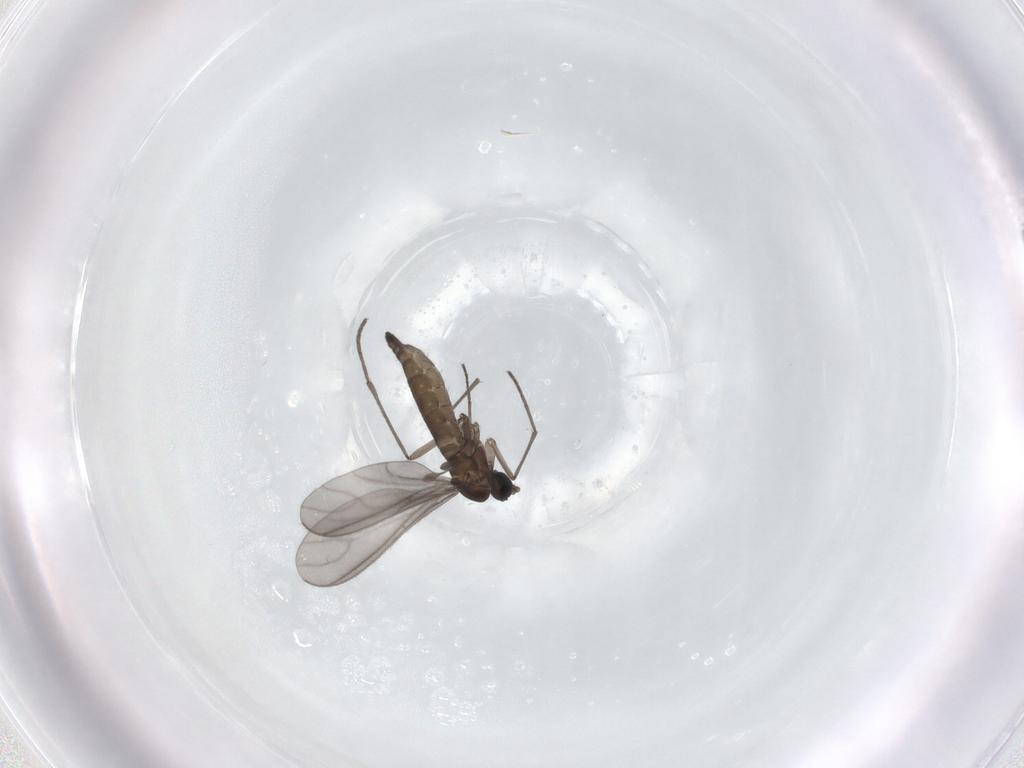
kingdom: Animalia
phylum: Arthropoda
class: Insecta
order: Diptera
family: Sciaridae
